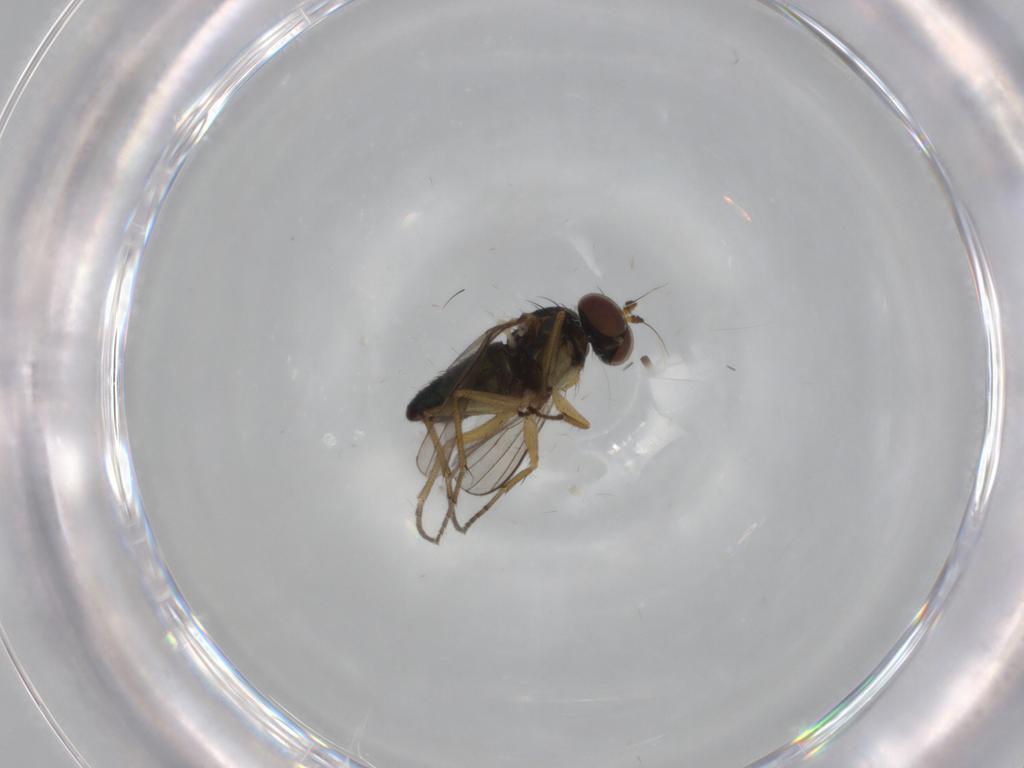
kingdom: Animalia
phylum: Arthropoda
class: Insecta
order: Diptera
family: Dolichopodidae
